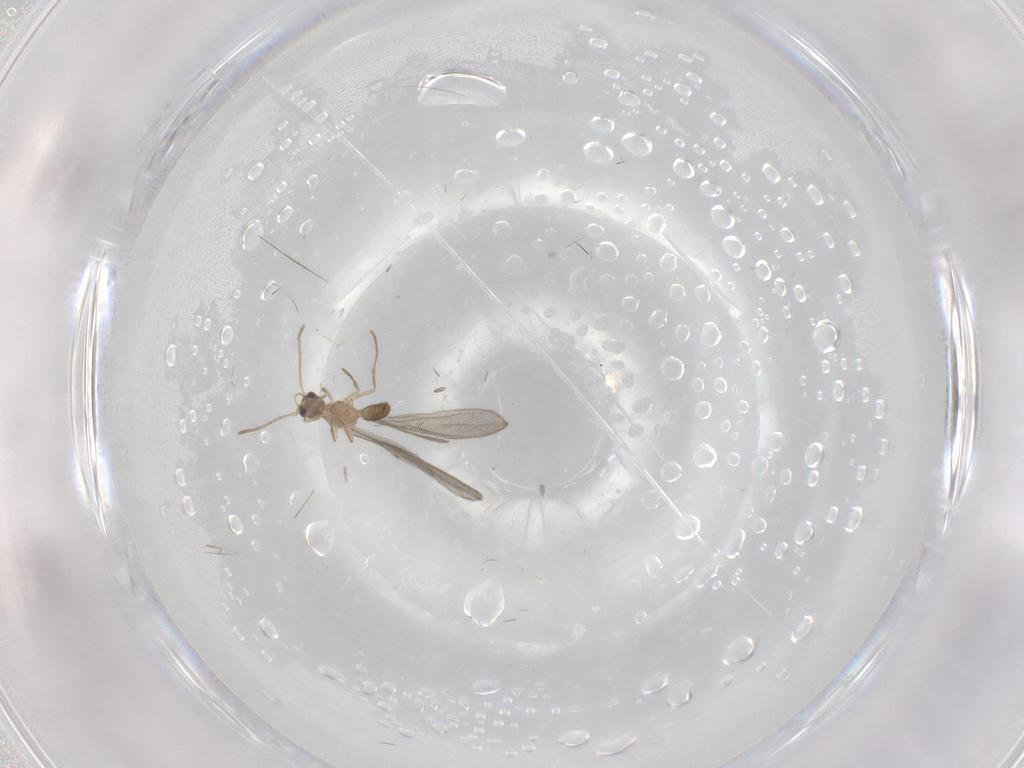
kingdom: Animalia
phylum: Arthropoda
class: Insecta
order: Hymenoptera
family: Formicidae
